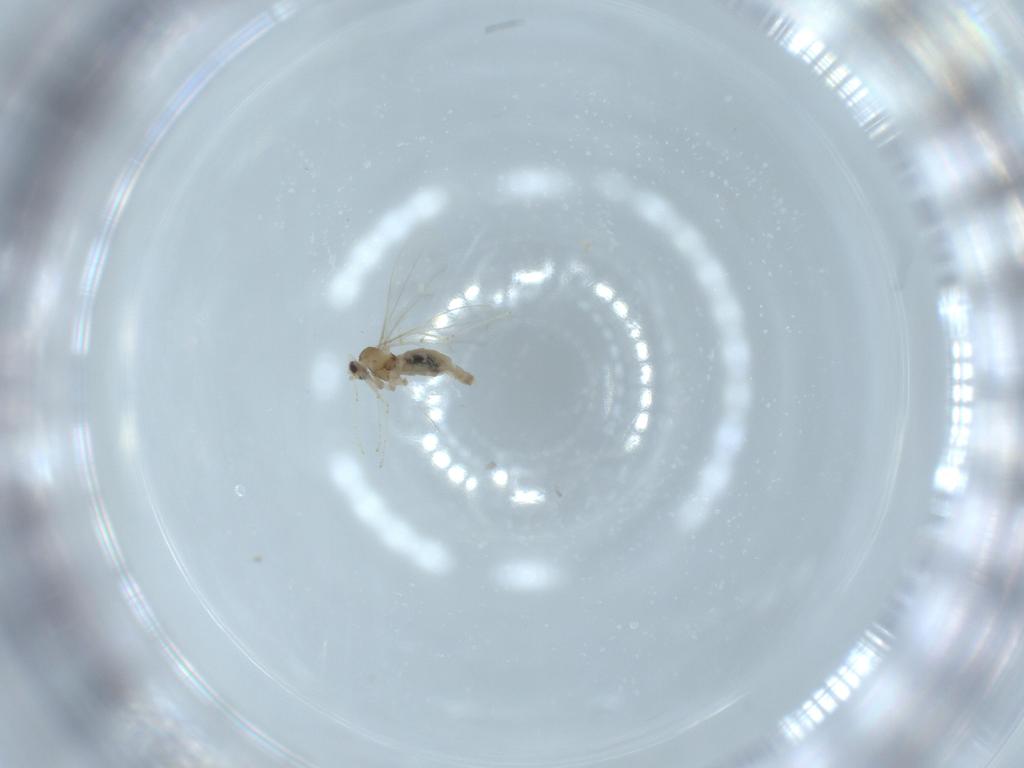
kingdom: Animalia
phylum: Arthropoda
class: Insecta
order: Diptera
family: Cecidomyiidae
